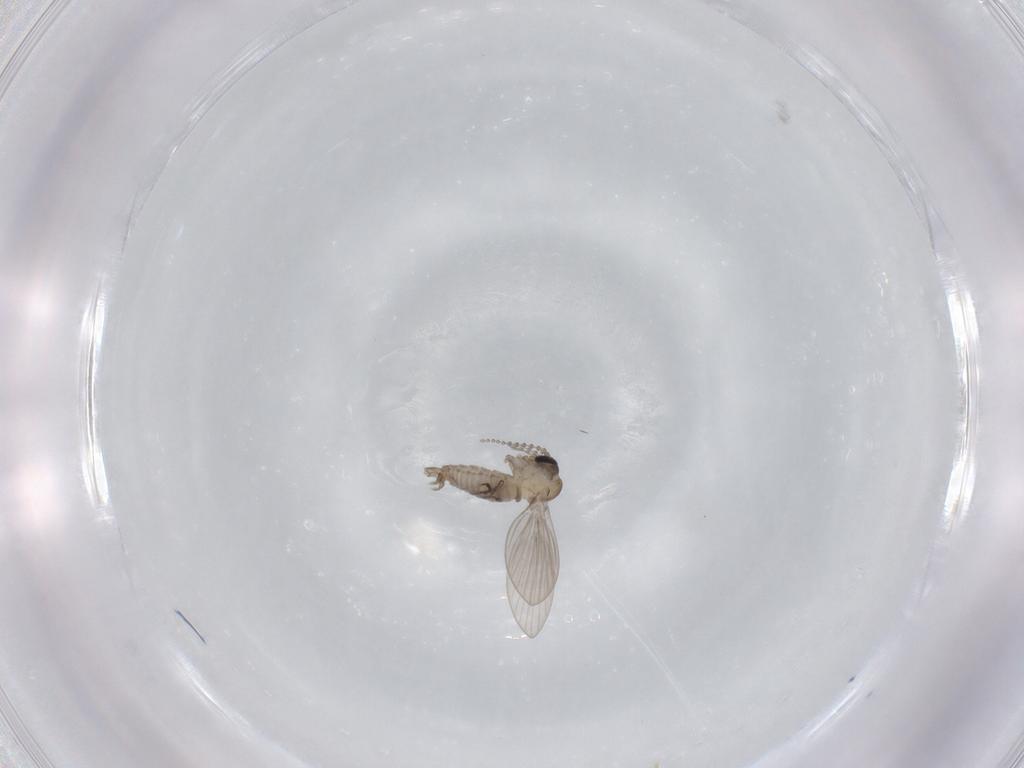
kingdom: Animalia
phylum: Arthropoda
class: Insecta
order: Diptera
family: Psychodidae
